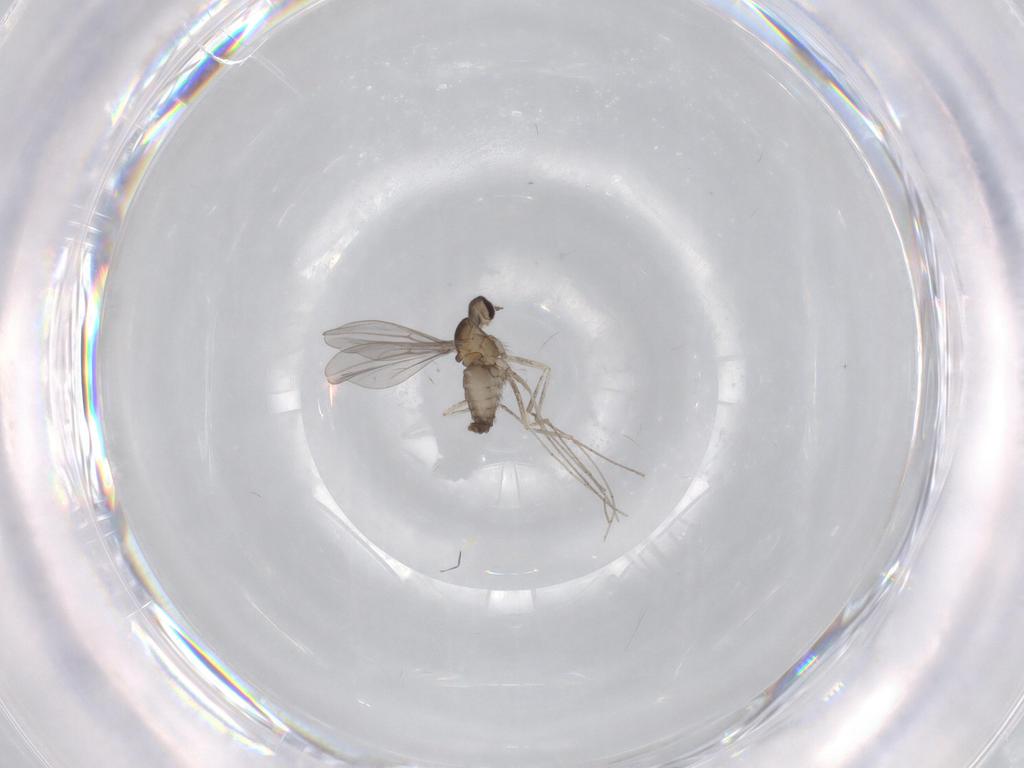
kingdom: Animalia
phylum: Arthropoda
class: Insecta
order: Diptera
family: Cecidomyiidae
